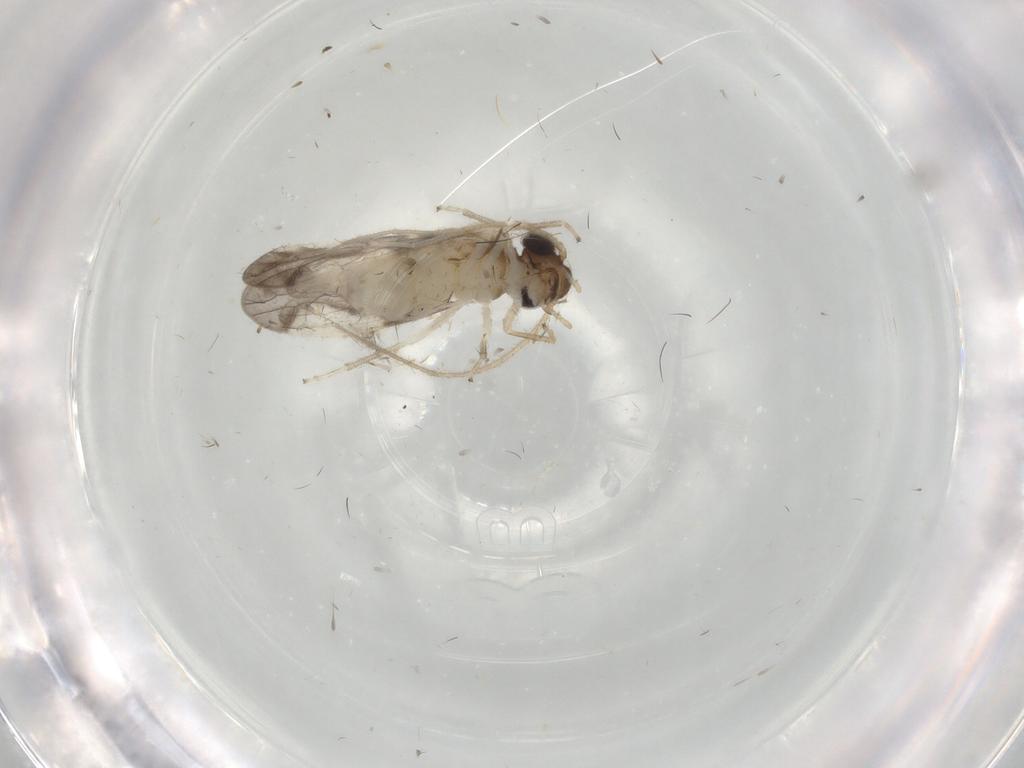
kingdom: Animalia
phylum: Arthropoda
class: Insecta
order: Psocodea
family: Caeciliusidae
